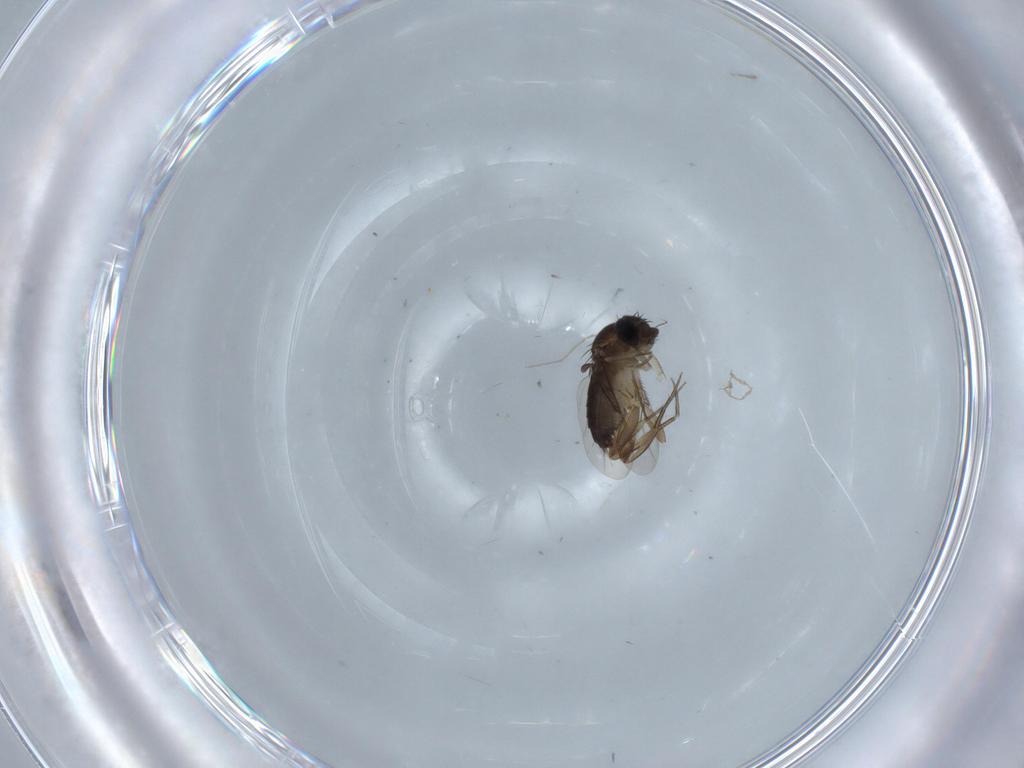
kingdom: Animalia
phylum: Arthropoda
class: Insecta
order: Diptera
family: Phoridae
